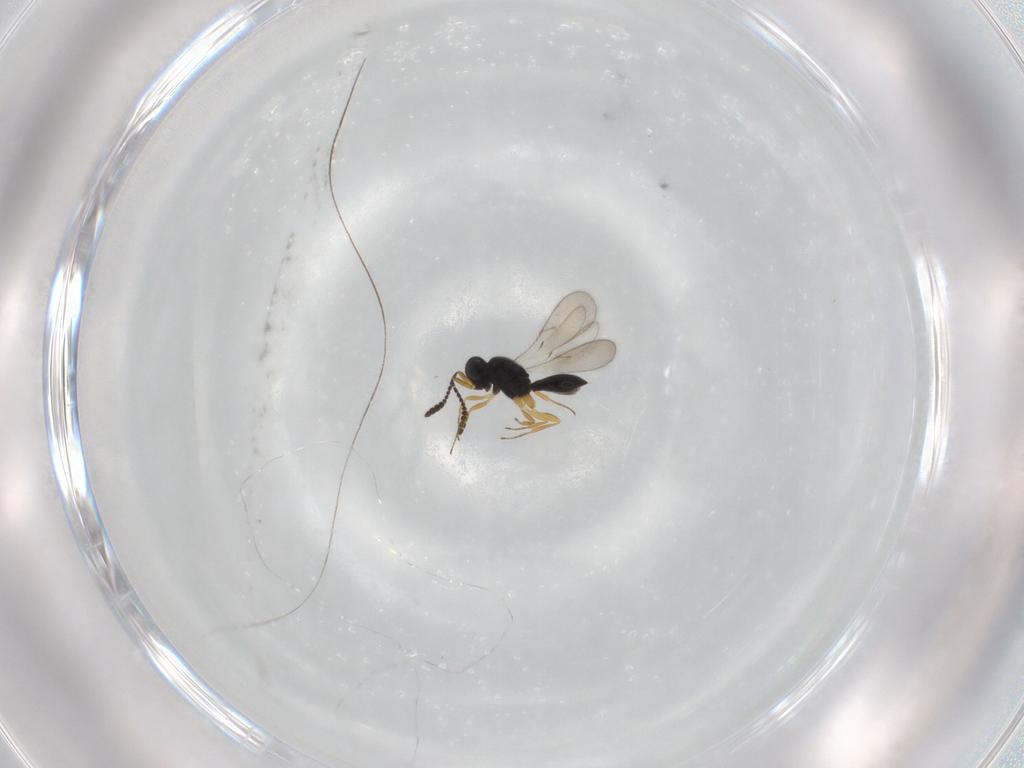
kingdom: Animalia
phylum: Arthropoda
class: Insecta
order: Hymenoptera
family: Scelionidae
